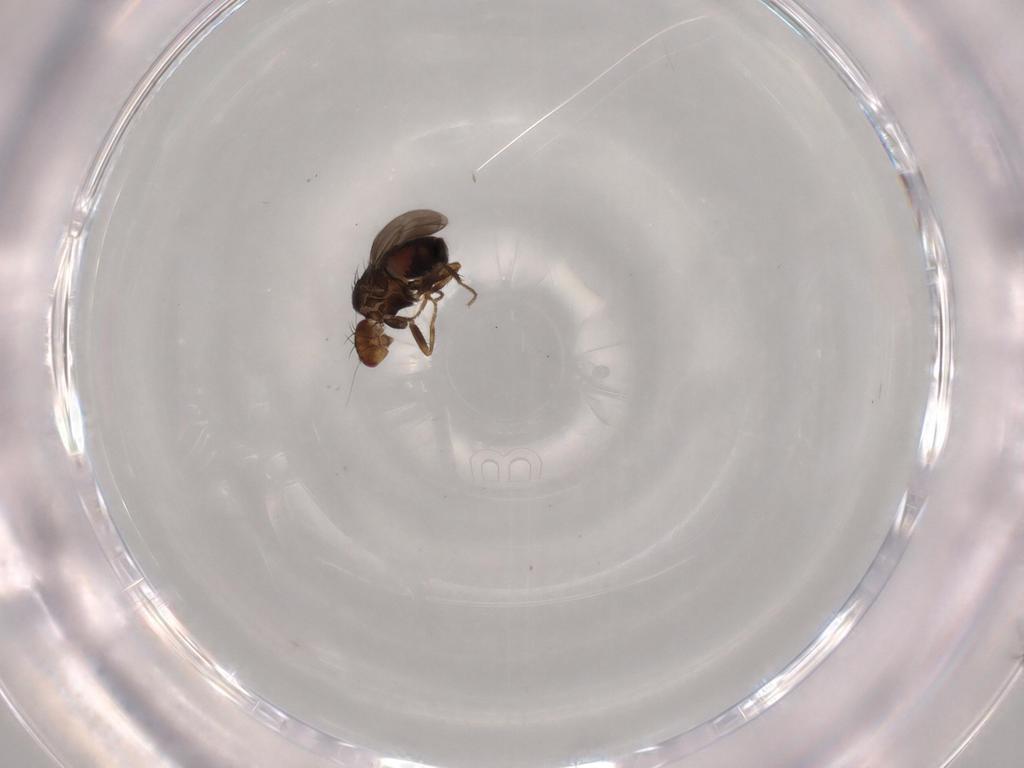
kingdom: Animalia
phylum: Arthropoda
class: Insecta
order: Diptera
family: Sphaeroceridae
